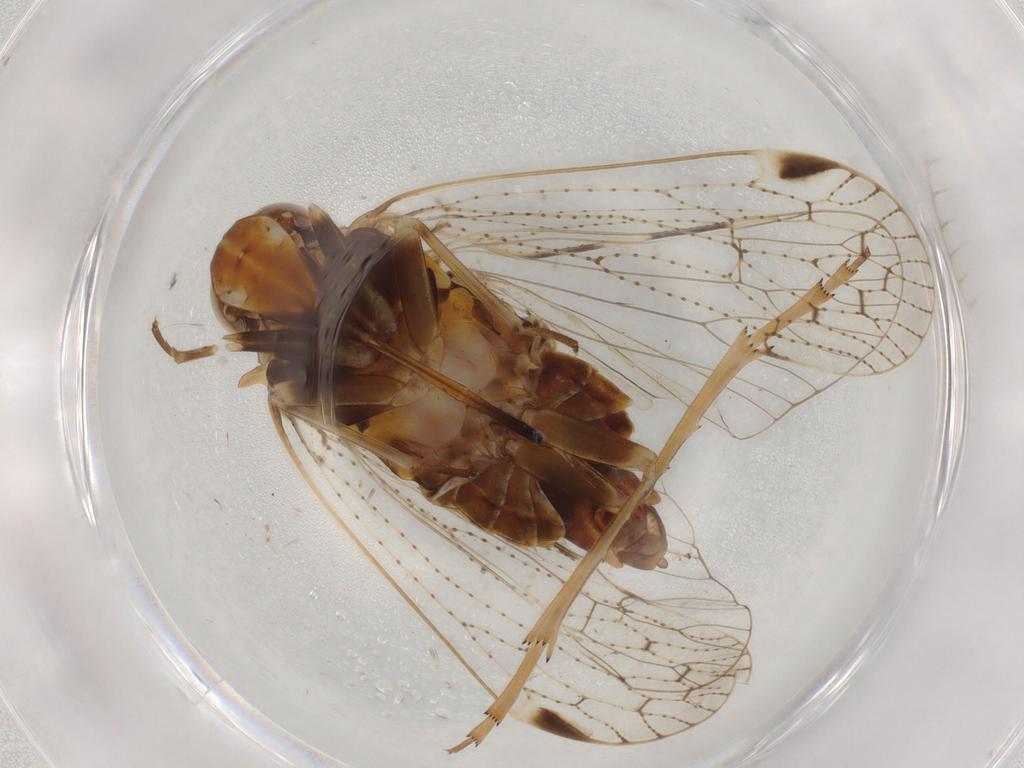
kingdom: Animalia
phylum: Arthropoda
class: Insecta
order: Hemiptera
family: Cixiidae
